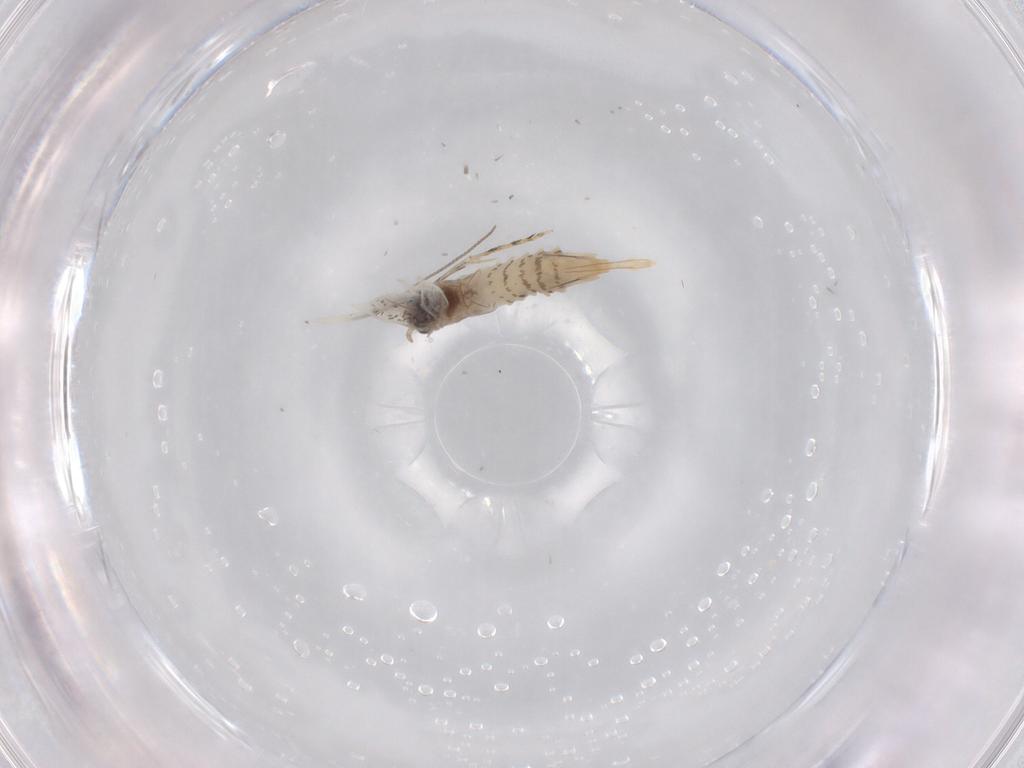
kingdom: Animalia
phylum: Arthropoda
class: Insecta
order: Lepidoptera
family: Tineidae
